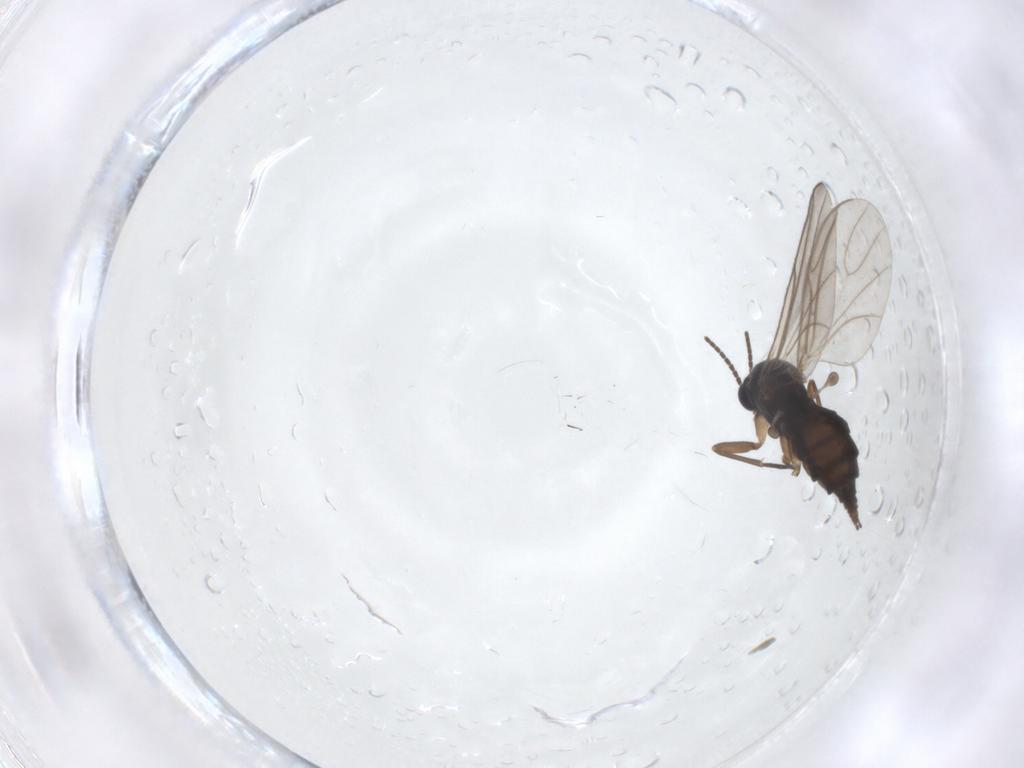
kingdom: Animalia
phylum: Arthropoda
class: Insecta
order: Diptera
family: Sciaridae
